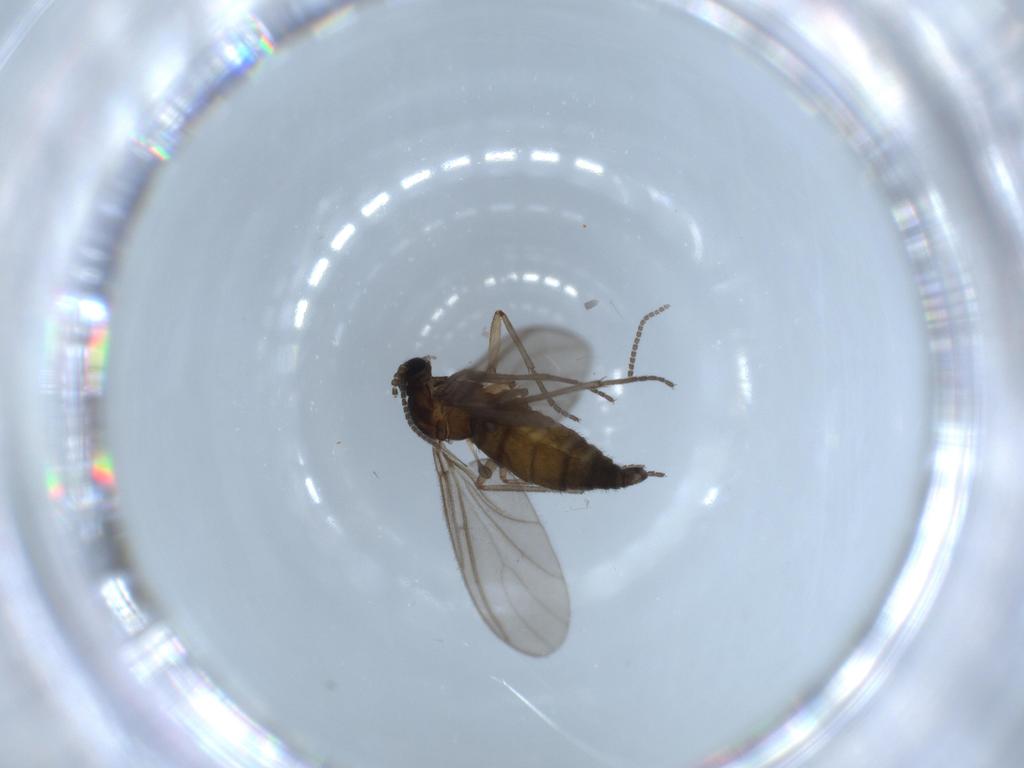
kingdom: Animalia
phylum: Arthropoda
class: Insecta
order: Diptera
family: Sciaridae
